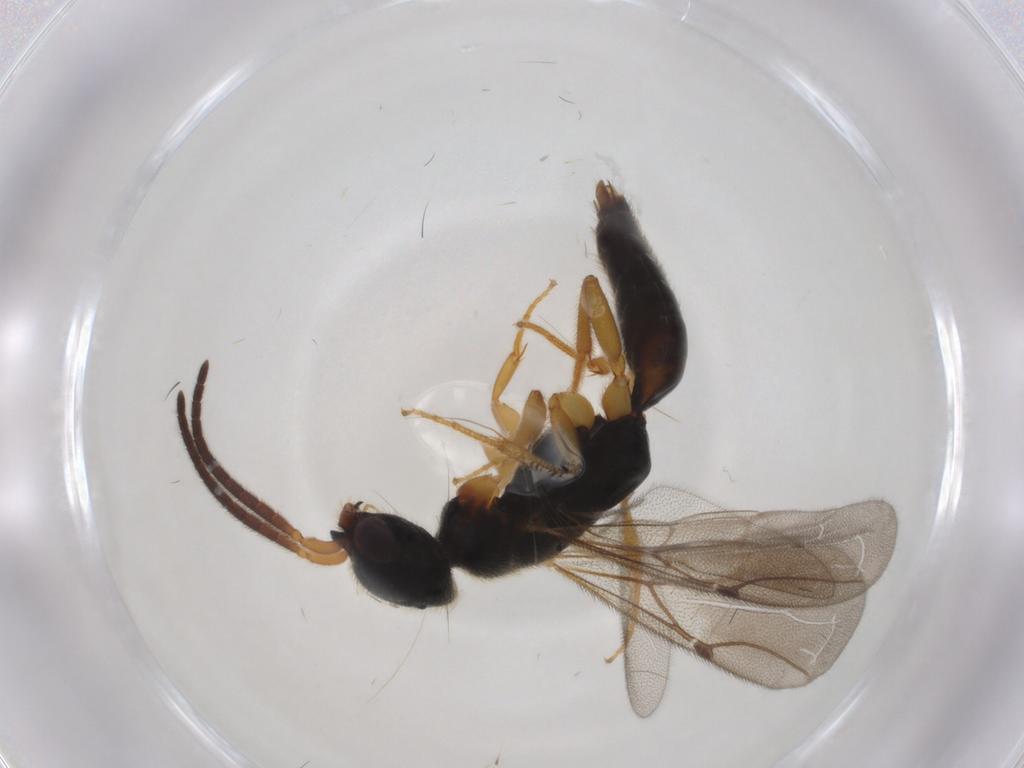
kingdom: Animalia
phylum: Arthropoda
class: Insecta
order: Hymenoptera
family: Bethylidae
